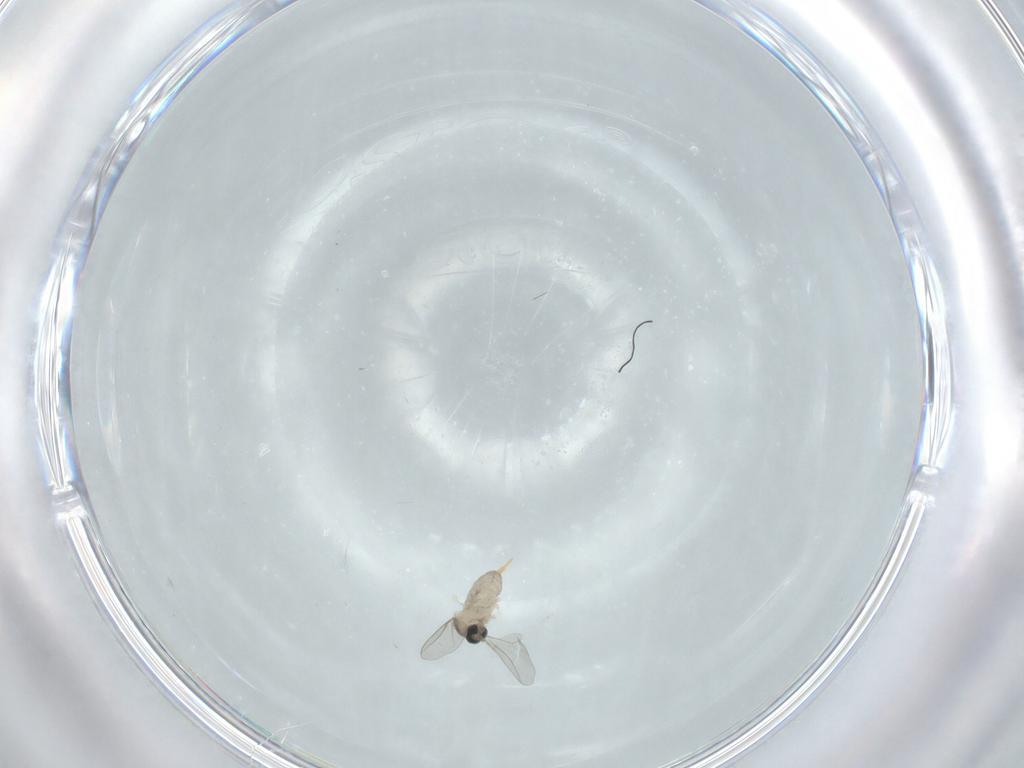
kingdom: Animalia
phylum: Arthropoda
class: Insecta
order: Diptera
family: Cecidomyiidae
